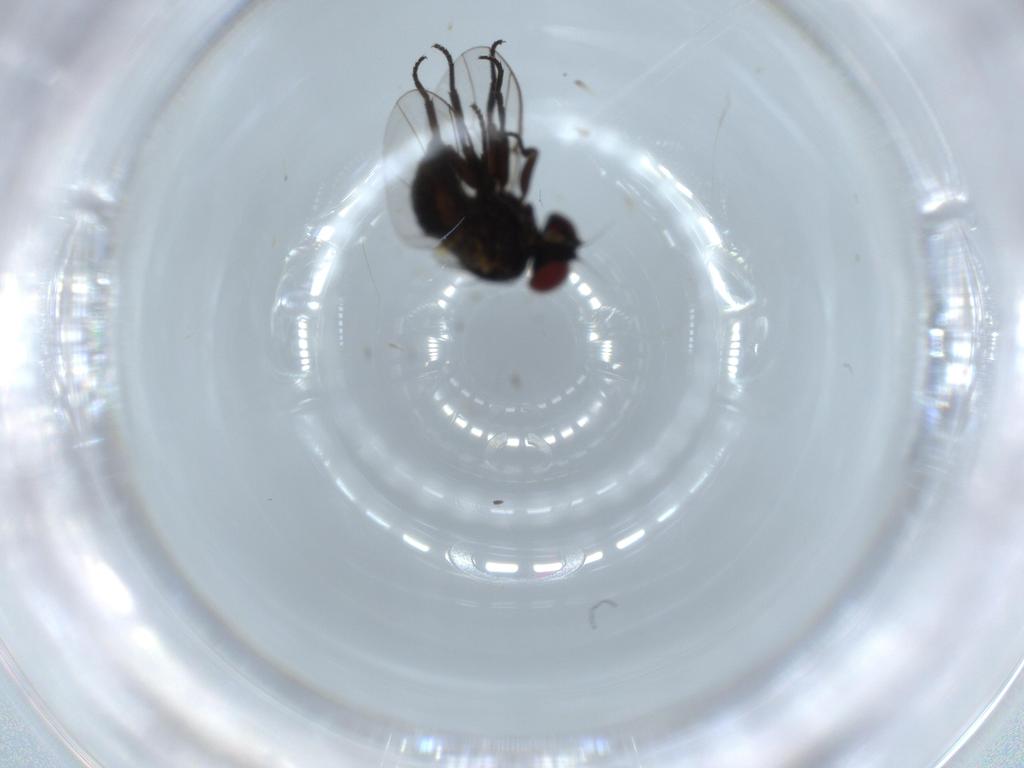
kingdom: Animalia
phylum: Arthropoda
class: Insecta
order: Diptera
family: Agromyzidae
